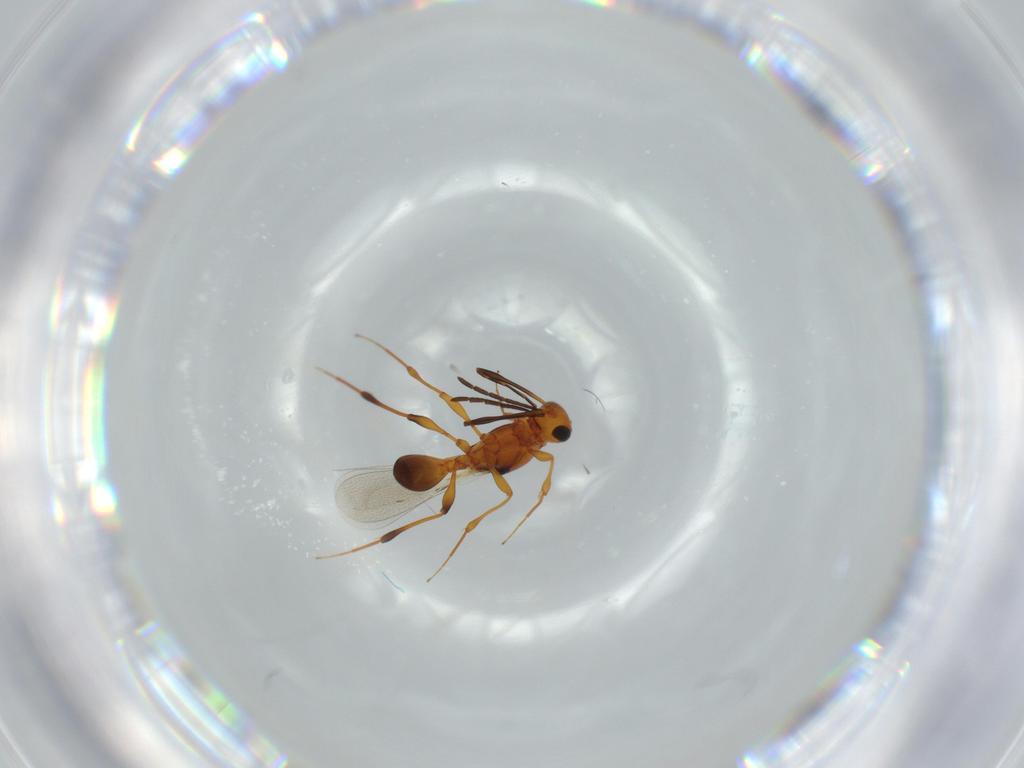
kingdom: Animalia
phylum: Arthropoda
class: Insecta
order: Hymenoptera
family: Platygastridae
